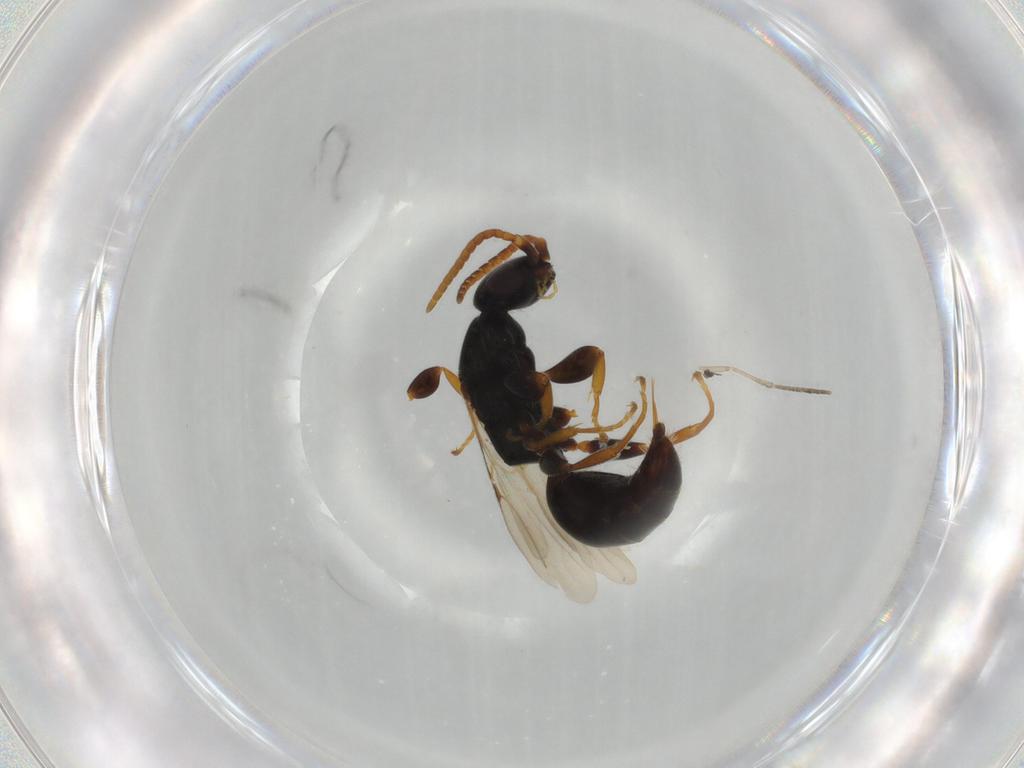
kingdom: Animalia
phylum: Arthropoda
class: Insecta
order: Hymenoptera
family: Bethylidae
